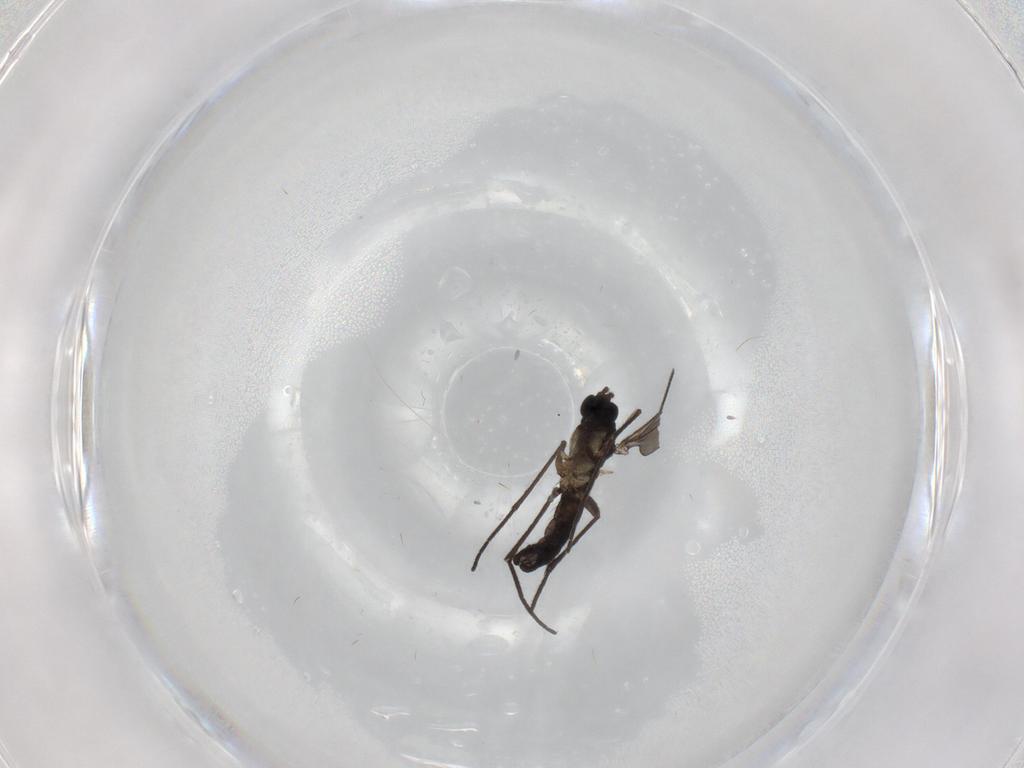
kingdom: Animalia
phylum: Arthropoda
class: Insecta
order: Diptera
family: Sciaridae
